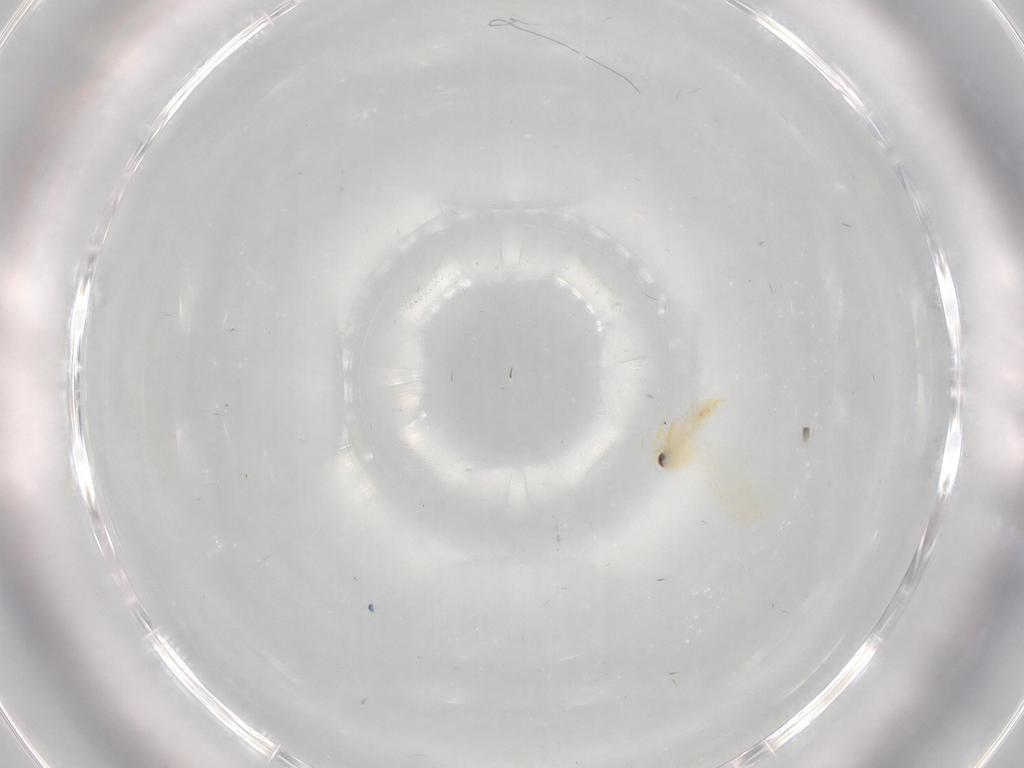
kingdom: Animalia
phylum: Arthropoda
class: Insecta
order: Hemiptera
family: Aleyrodidae
